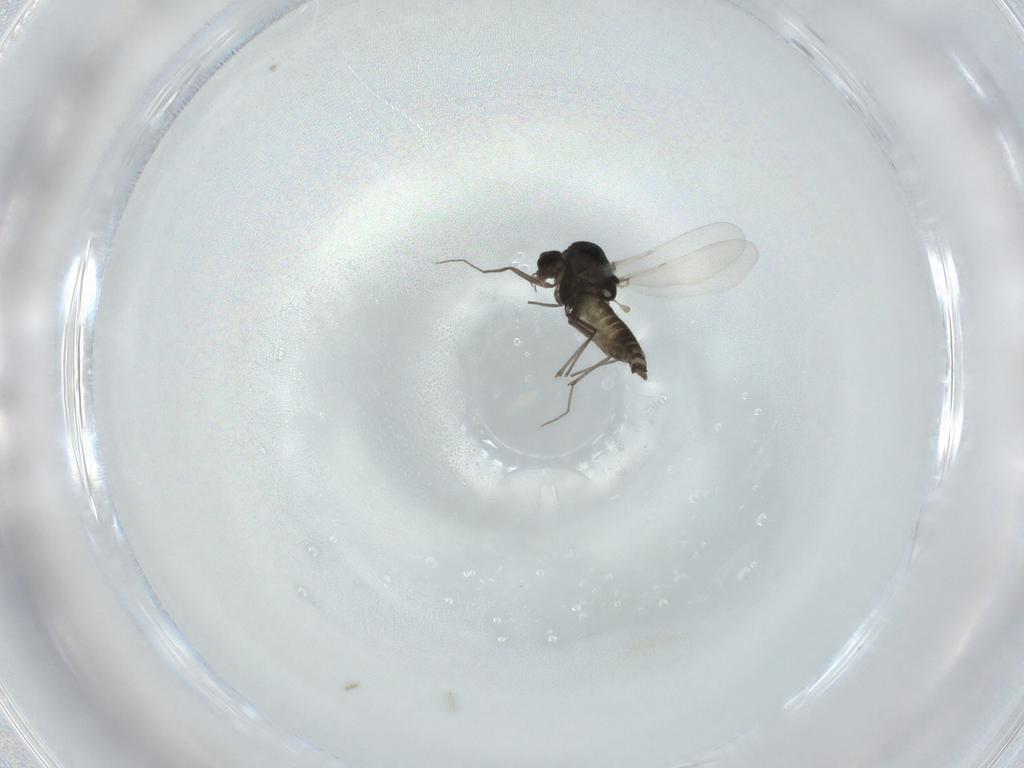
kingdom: Animalia
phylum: Arthropoda
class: Insecta
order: Diptera
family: Chironomidae
